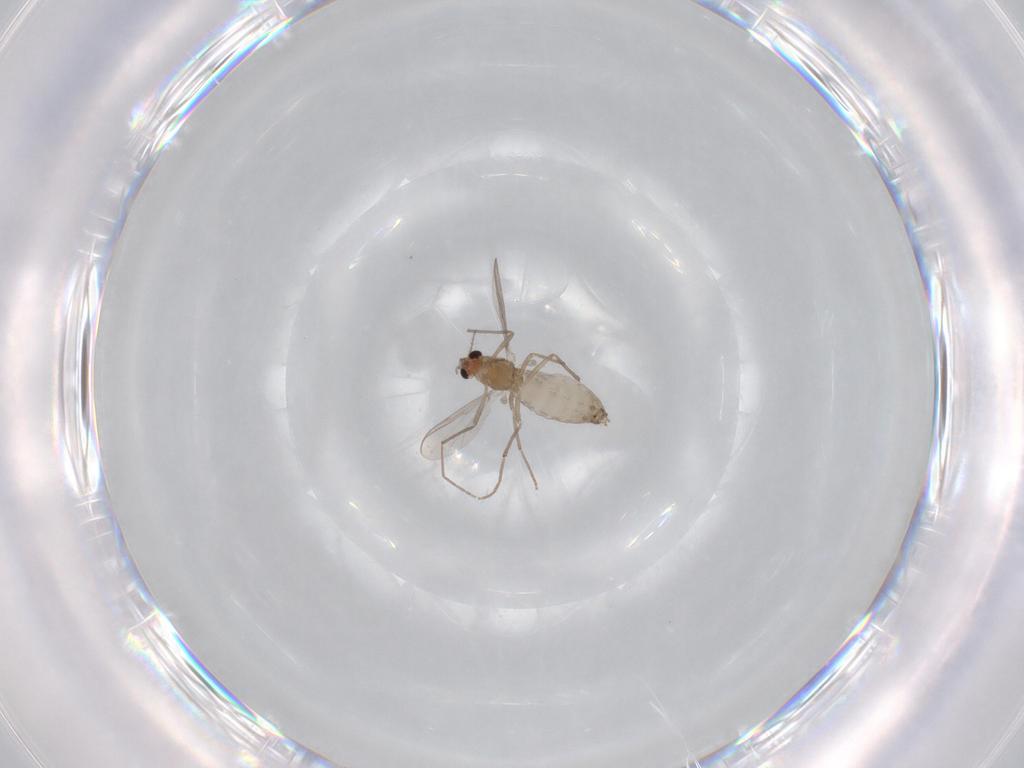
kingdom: Animalia
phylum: Arthropoda
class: Insecta
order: Diptera
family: Chironomidae
